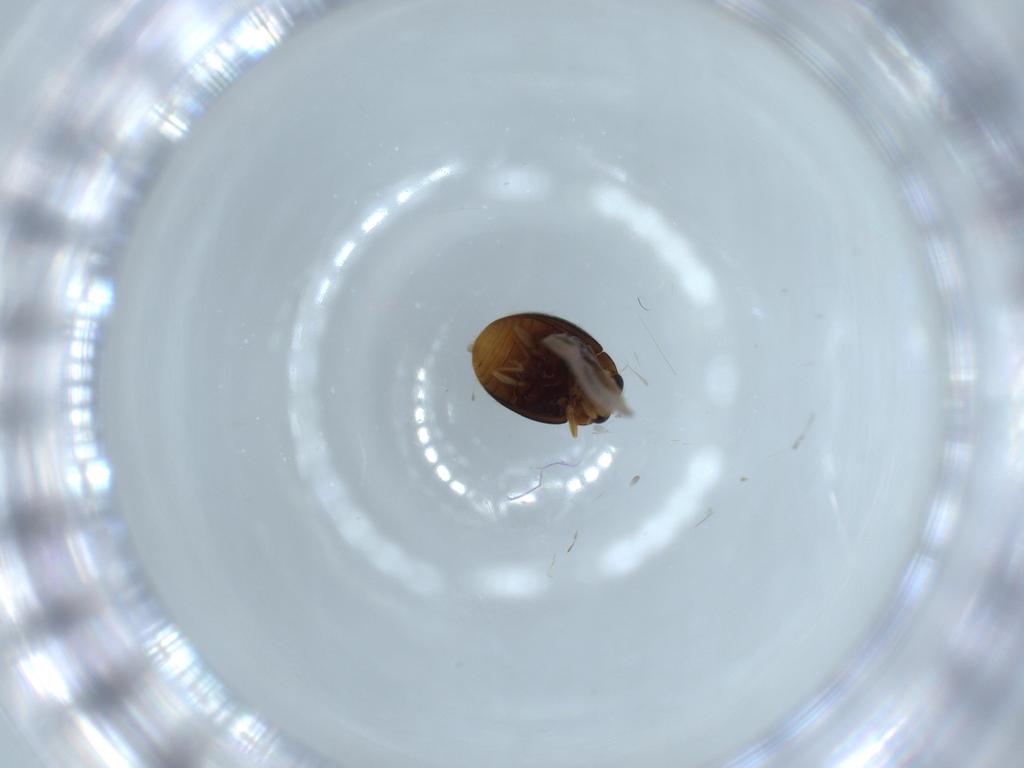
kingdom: Animalia
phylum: Arthropoda
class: Insecta
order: Coleoptera
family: Coccinellidae
